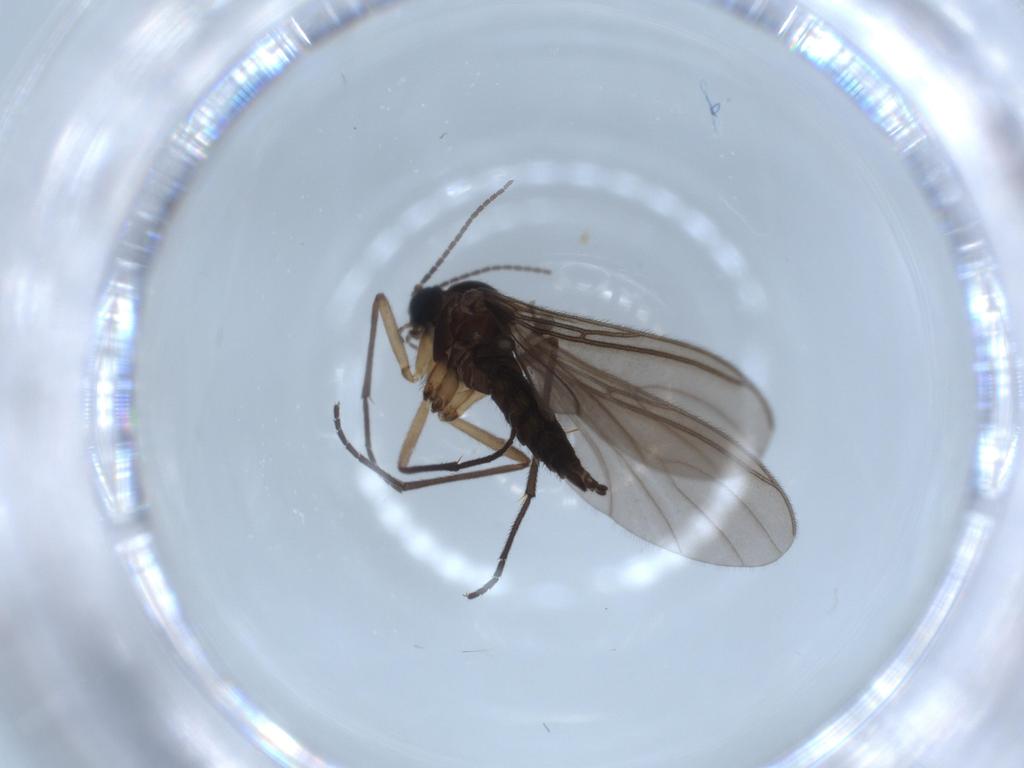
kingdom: Animalia
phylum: Arthropoda
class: Insecta
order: Diptera
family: Muscidae
